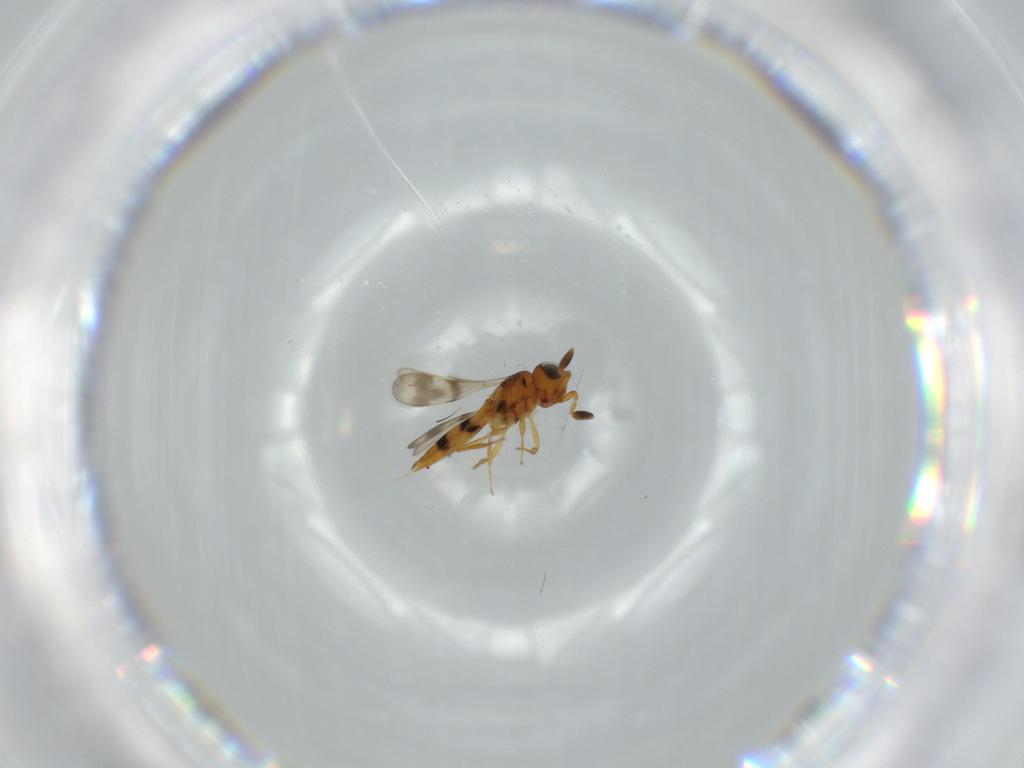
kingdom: Animalia
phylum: Arthropoda
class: Insecta
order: Hymenoptera
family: Scelionidae
